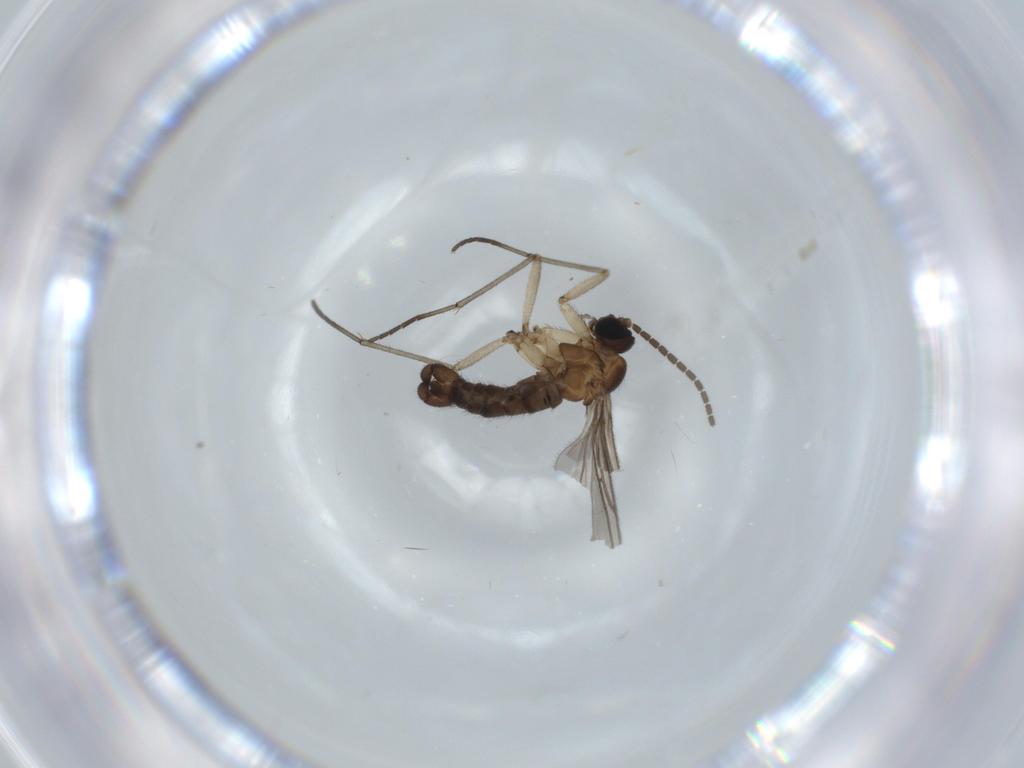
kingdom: Animalia
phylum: Arthropoda
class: Insecta
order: Diptera
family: Sciaridae
